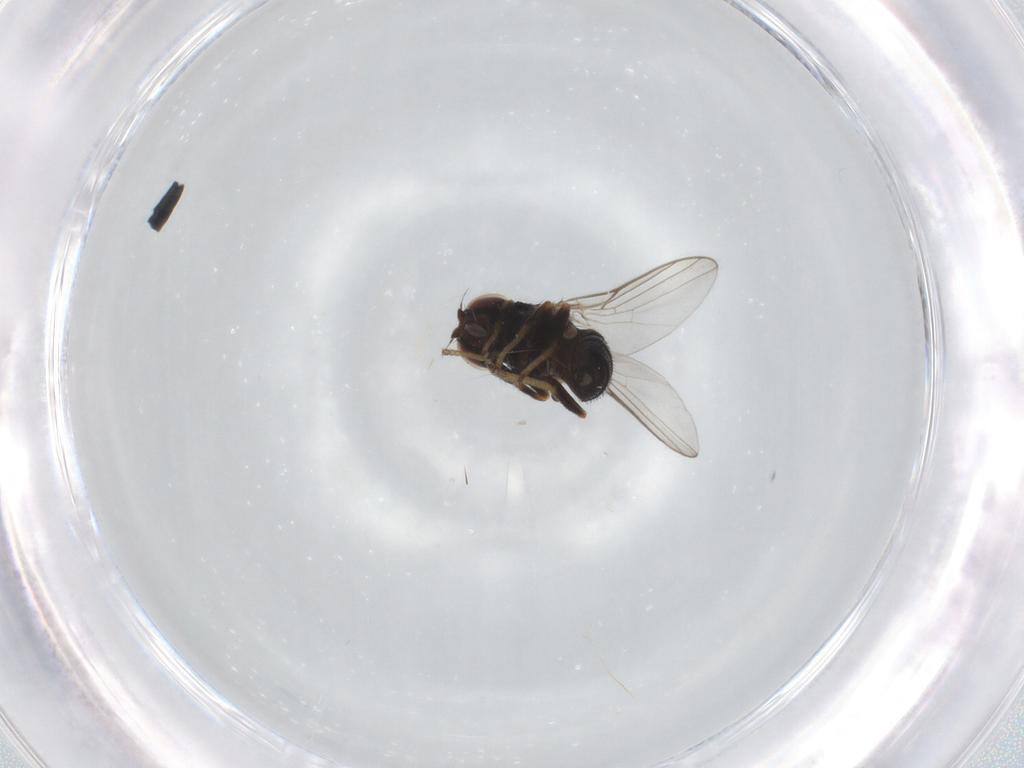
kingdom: Animalia
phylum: Arthropoda
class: Insecta
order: Diptera
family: Chloropidae
